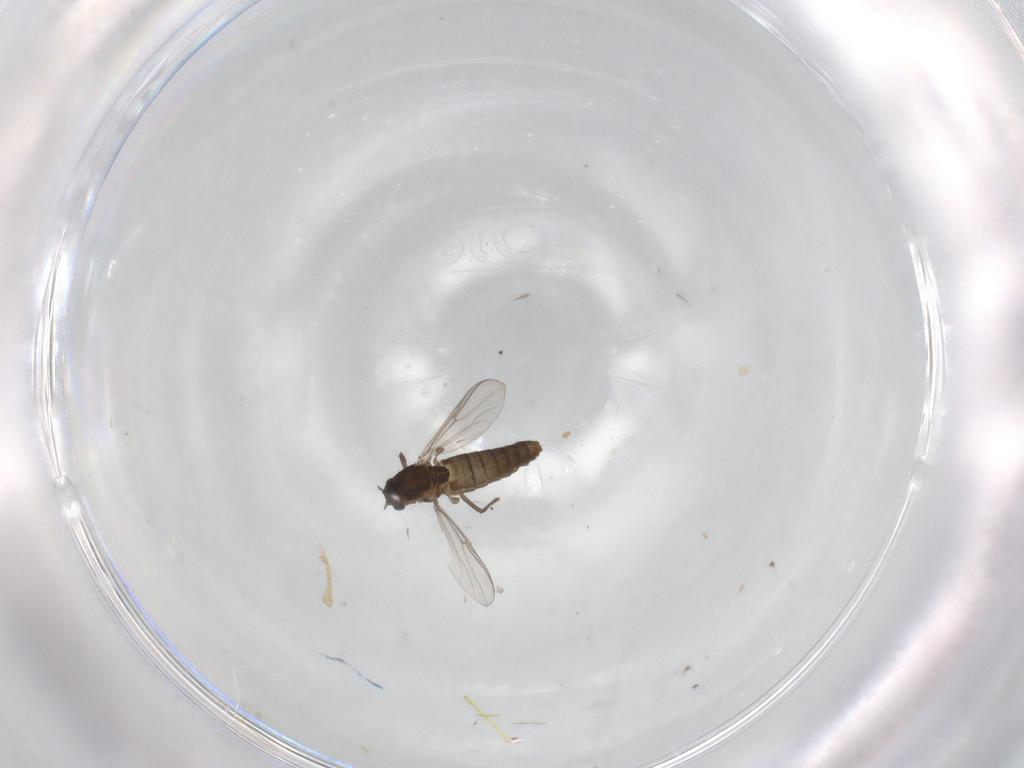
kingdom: Animalia
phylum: Arthropoda
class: Insecta
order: Diptera
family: Chironomidae
